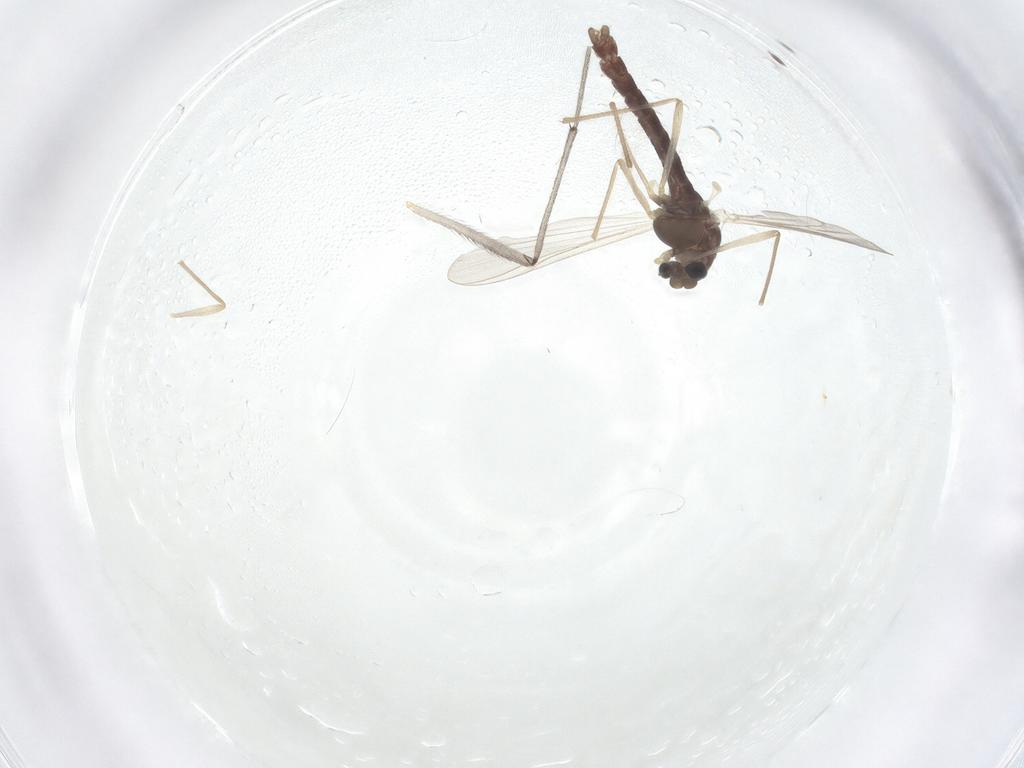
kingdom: Animalia
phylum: Arthropoda
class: Insecta
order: Diptera
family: Chironomidae
